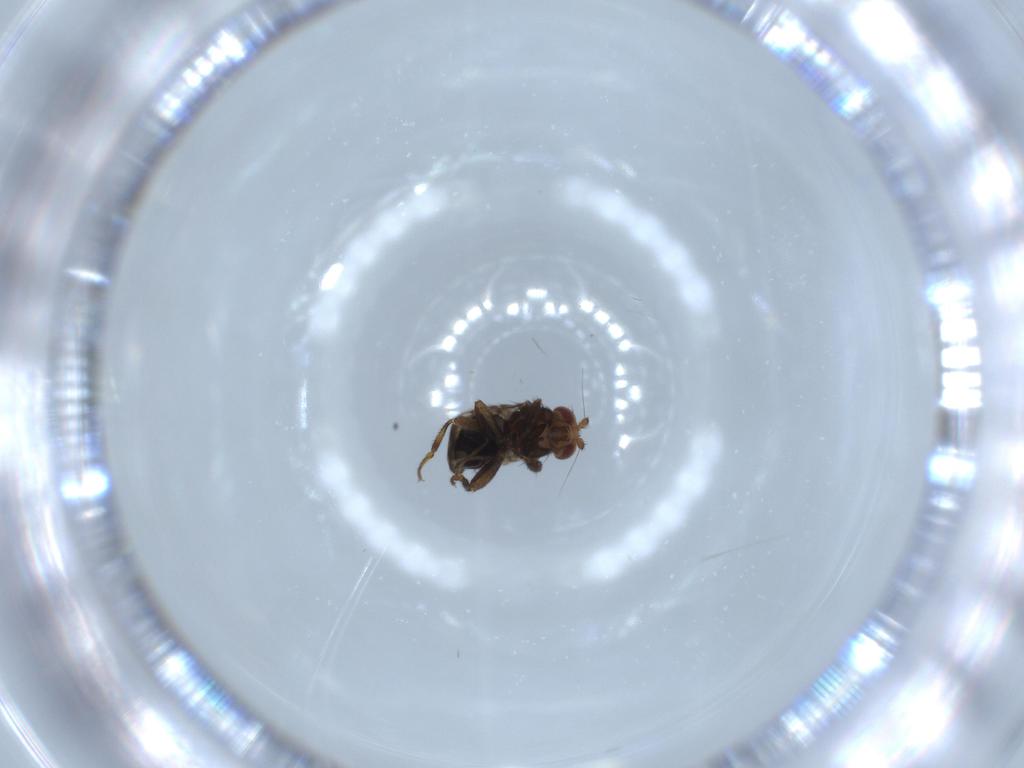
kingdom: Animalia
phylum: Arthropoda
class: Insecta
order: Diptera
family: Sphaeroceridae
